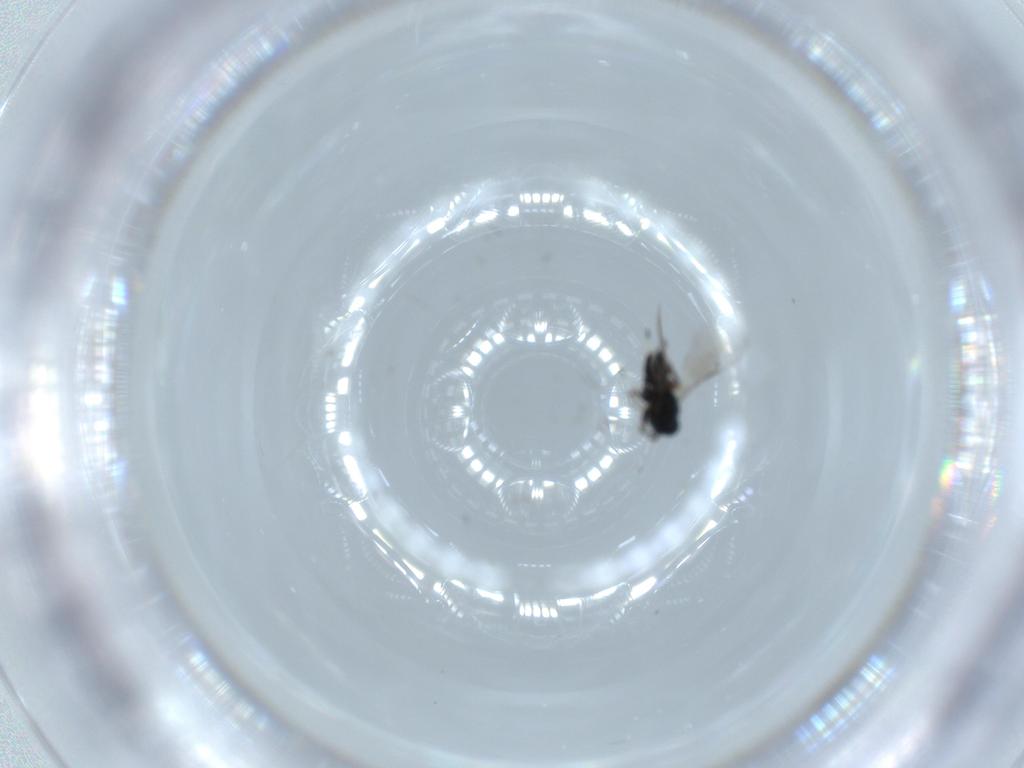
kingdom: Animalia
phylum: Arthropoda
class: Insecta
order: Hymenoptera
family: Eulophidae
